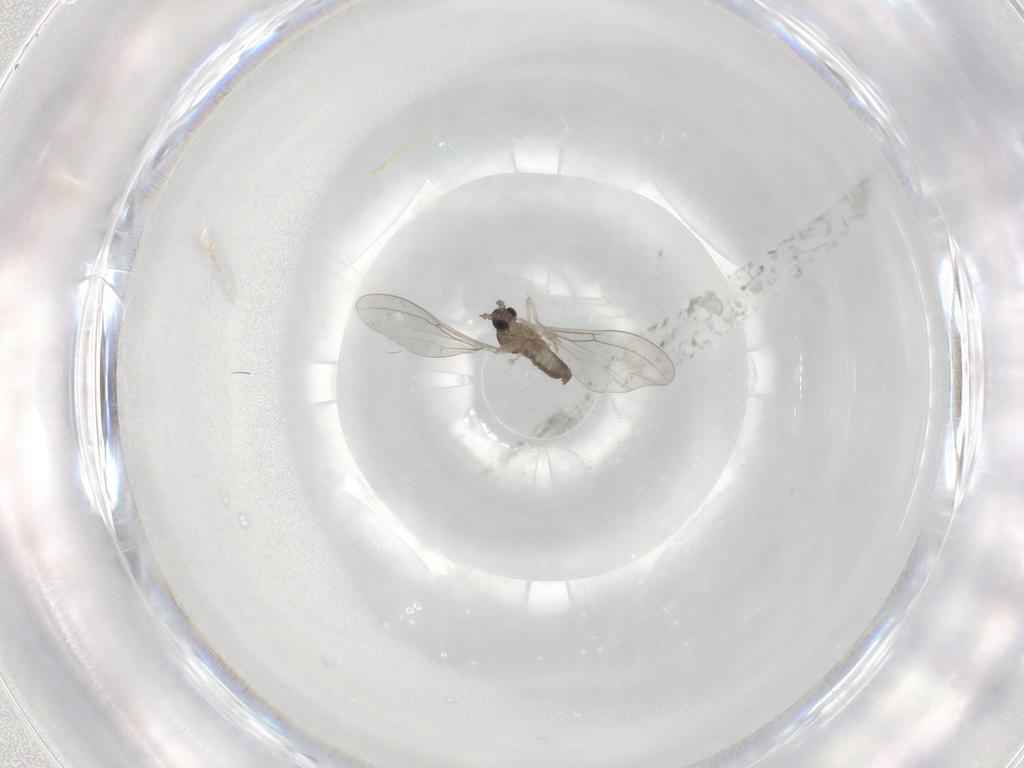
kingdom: Animalia
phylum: Arthropoda
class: Insecta
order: Diptera
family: Cecidomyiidae
